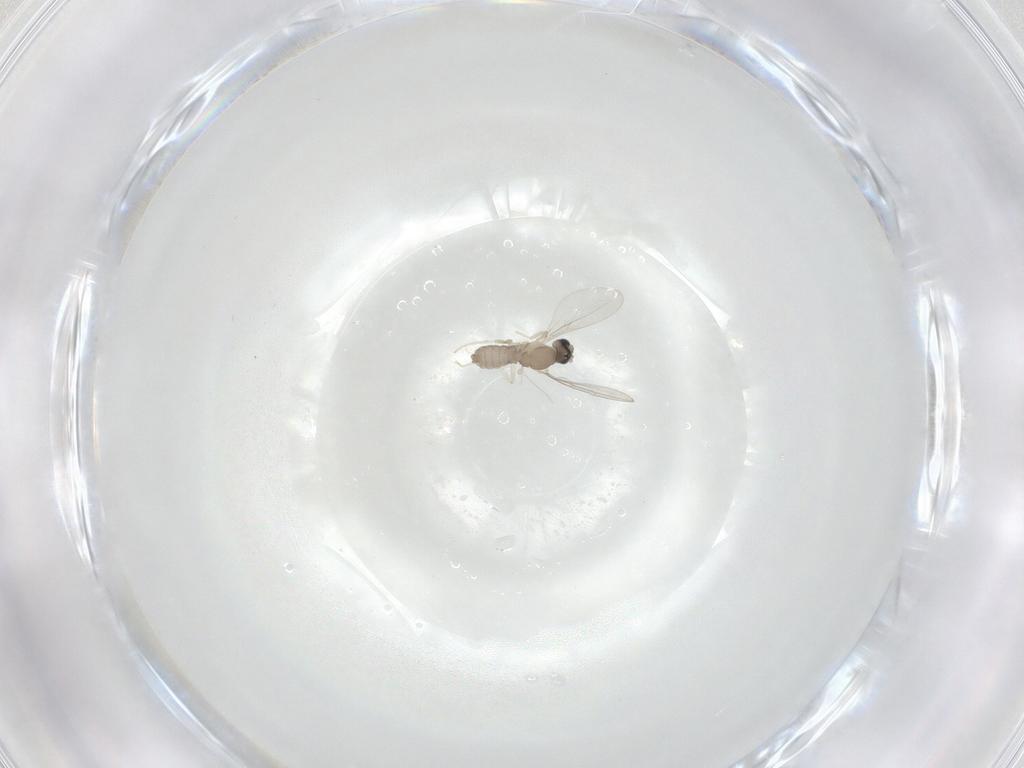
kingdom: Animalia
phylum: Arthropoda
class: Insecta
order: Diptera
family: Cecidomyiidae
